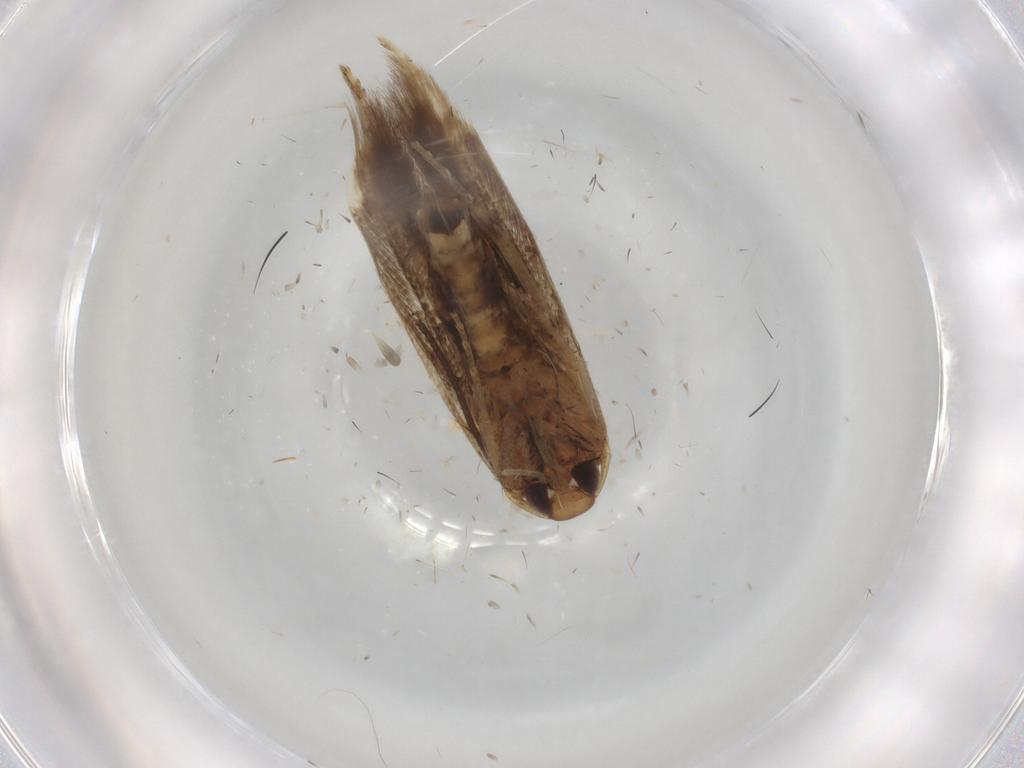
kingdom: Animalia
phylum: Arthropoda
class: Insecta
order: Lepidoptera
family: Cosmopterigidae
